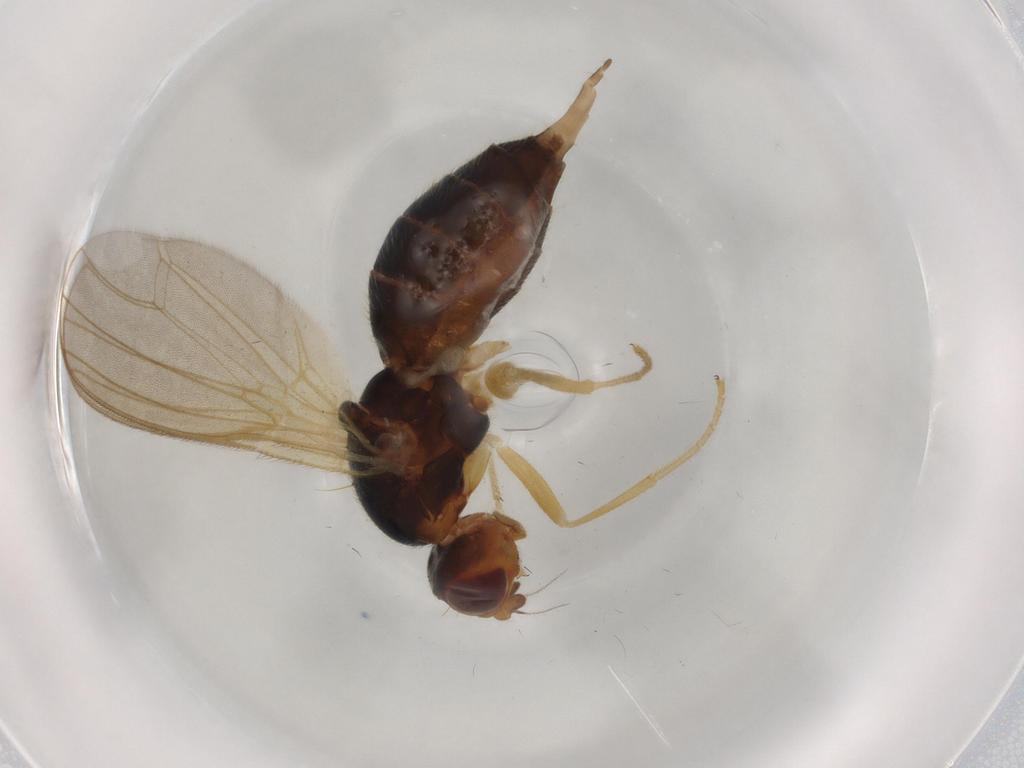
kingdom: Animalia
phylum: Arthropoda
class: Insecta
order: Diptera
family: Psilidae
